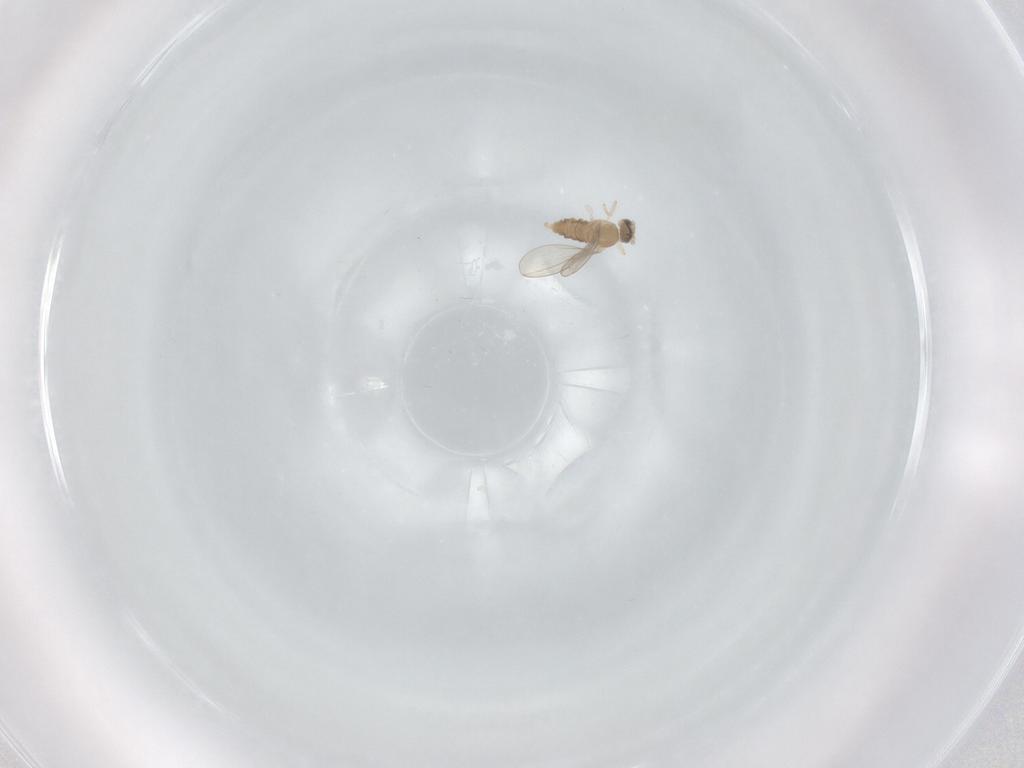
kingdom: Animalia
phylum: Arthropoda
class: Insecta
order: Diptera
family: Cecidomyiidae
